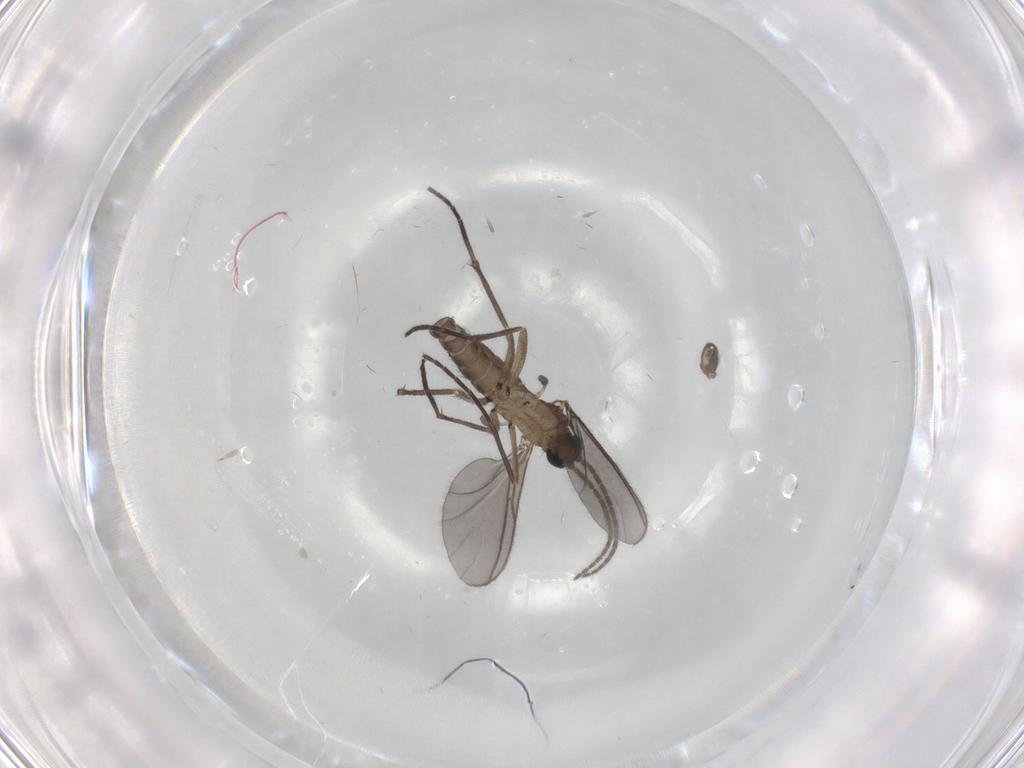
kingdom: Animalia
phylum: Arthropoda
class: Insecta
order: Diptera
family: Sciaridae
